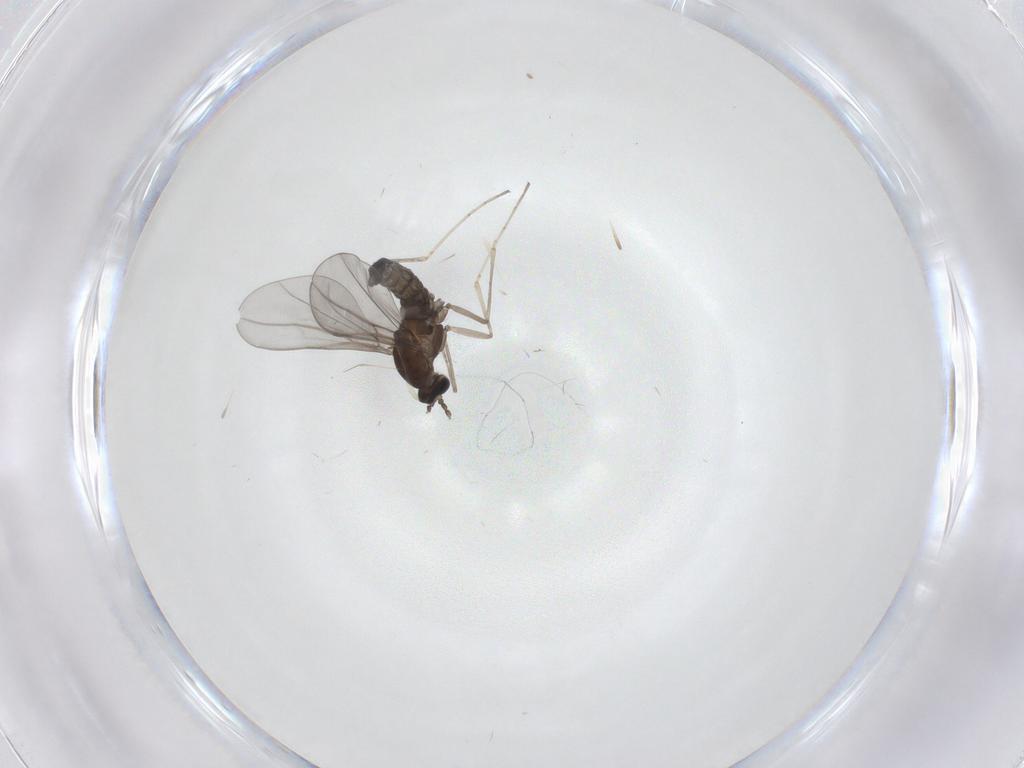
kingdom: Animalia
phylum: Arthropoda
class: Insecta
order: Diptera
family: Cecidomyiidae
